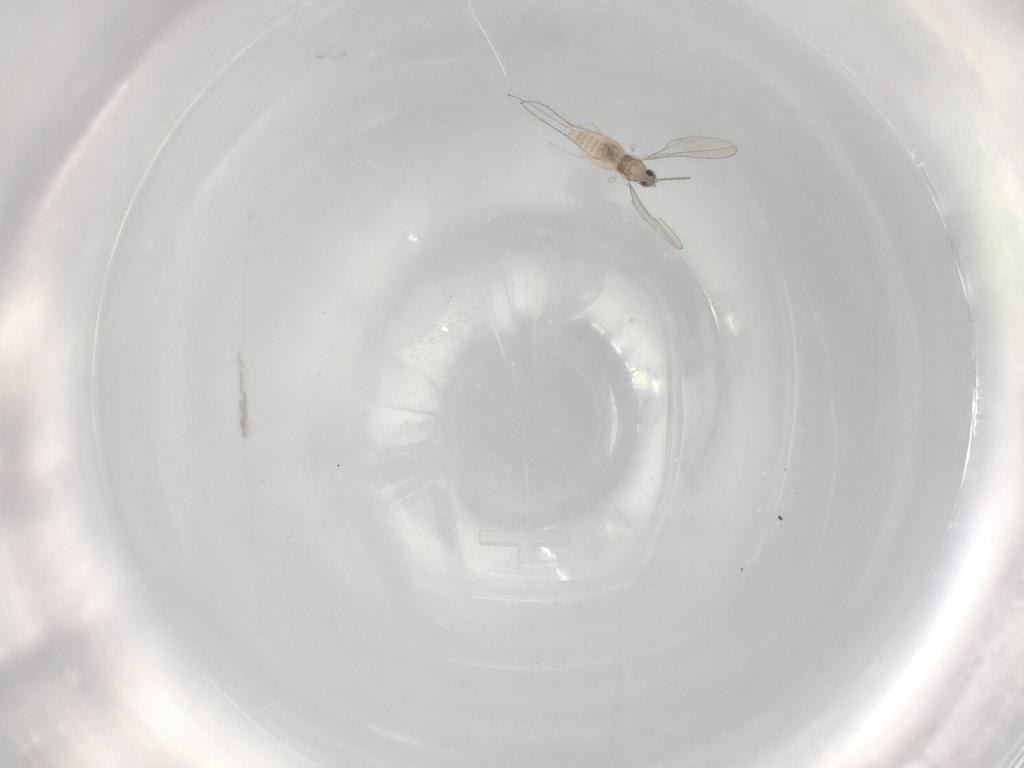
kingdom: Animalia
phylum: Arthropoda
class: Insecta
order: Diptera
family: Cecidomyiidae
